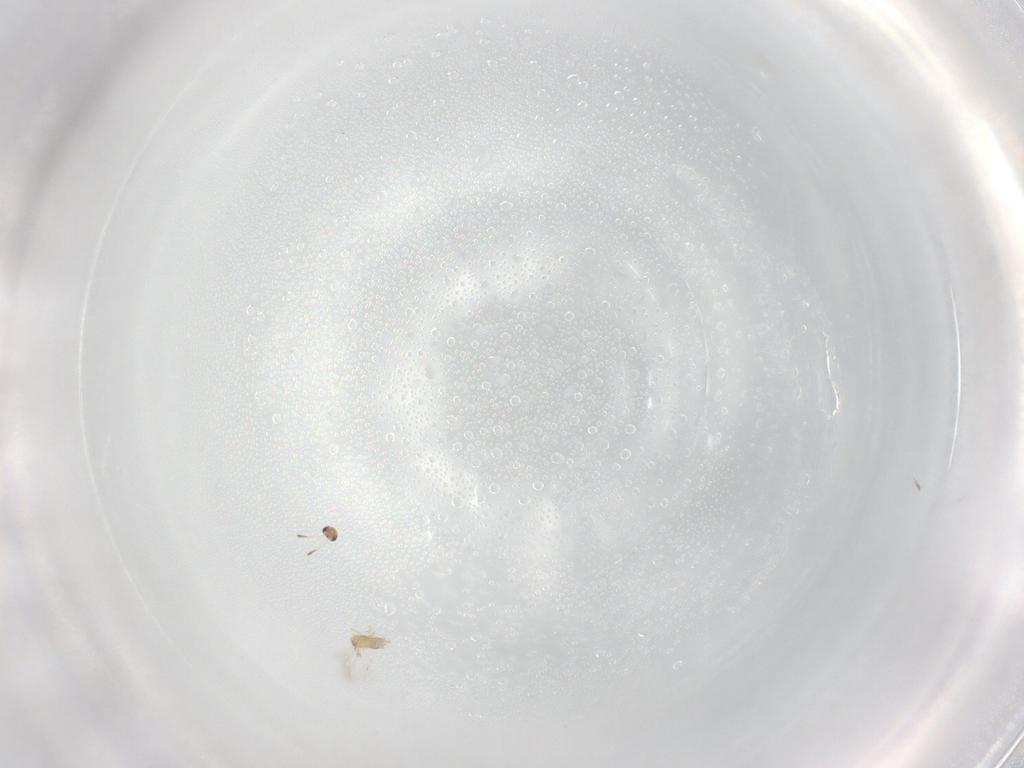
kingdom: Animalia
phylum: Arthropoda
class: Insecta
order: Hymenoptera
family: Mymaridae
